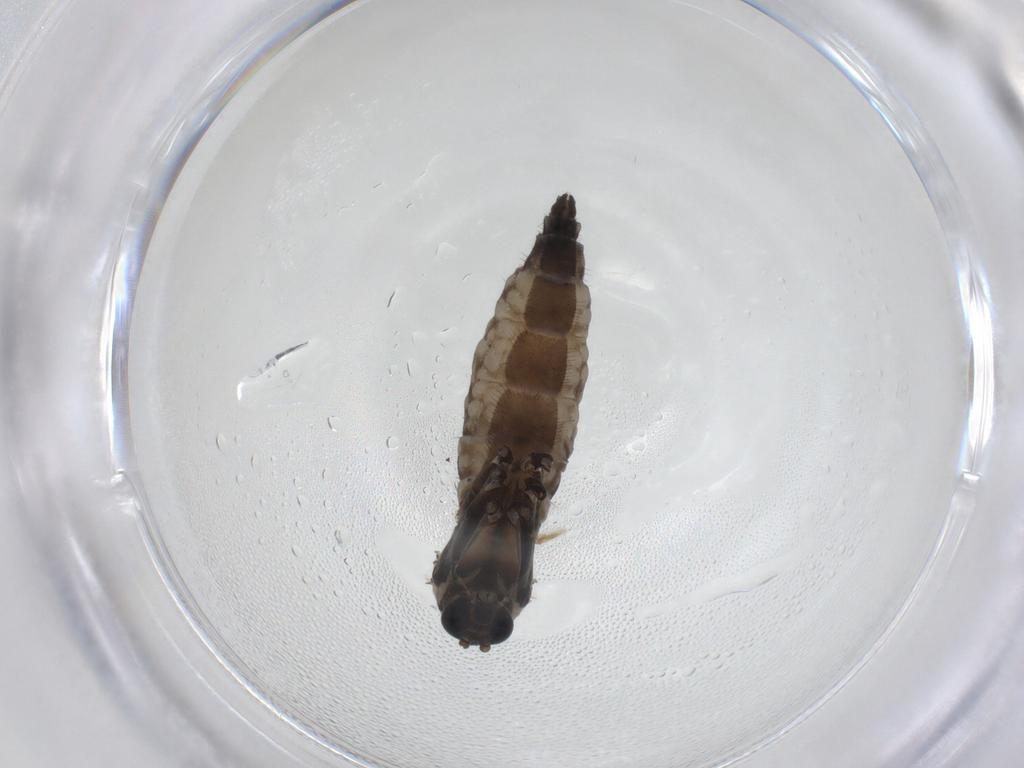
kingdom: Animalia
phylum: Arthropoda
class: Insecta
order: Diptera
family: Sciaridae
